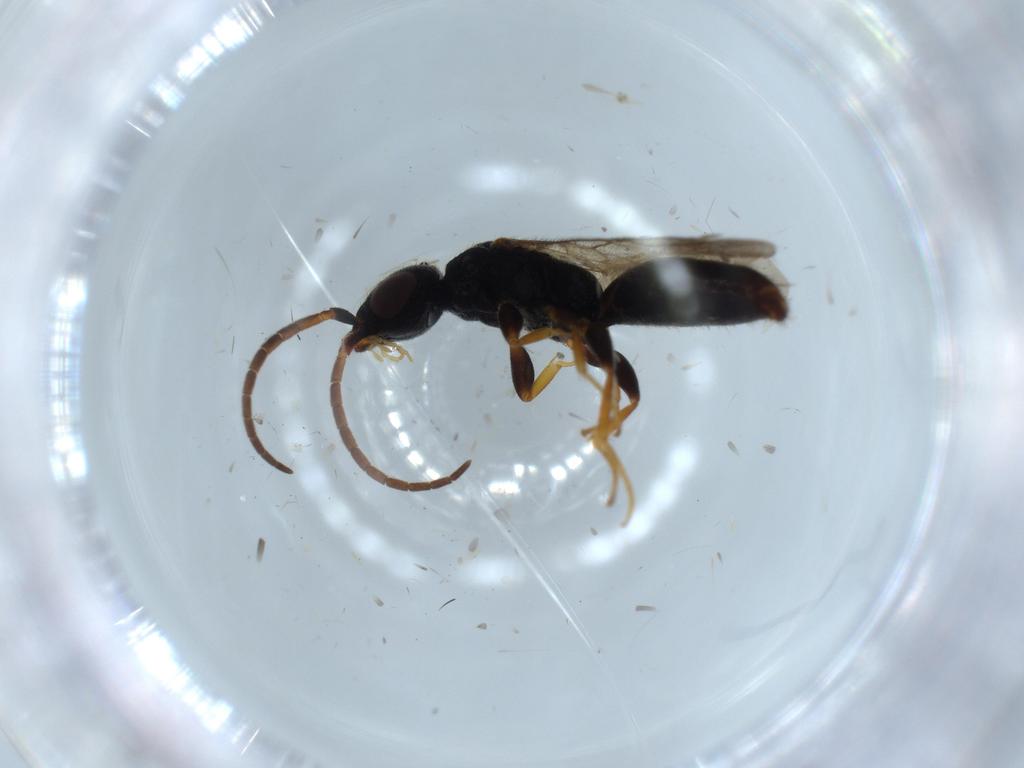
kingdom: Animalia
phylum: Arthropoda
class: Insecta
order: Hymenoptera
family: Bethylidae
